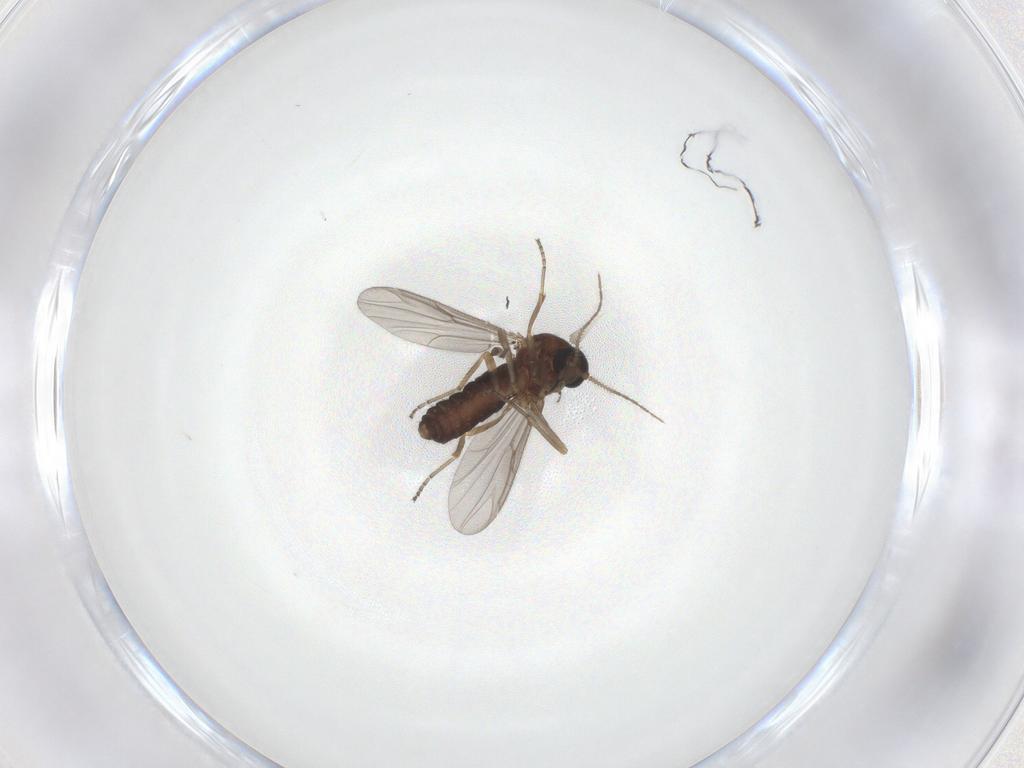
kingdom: Animalia
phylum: Arthropoda
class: Insecta
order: Diptera
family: Ceratopogonidae
